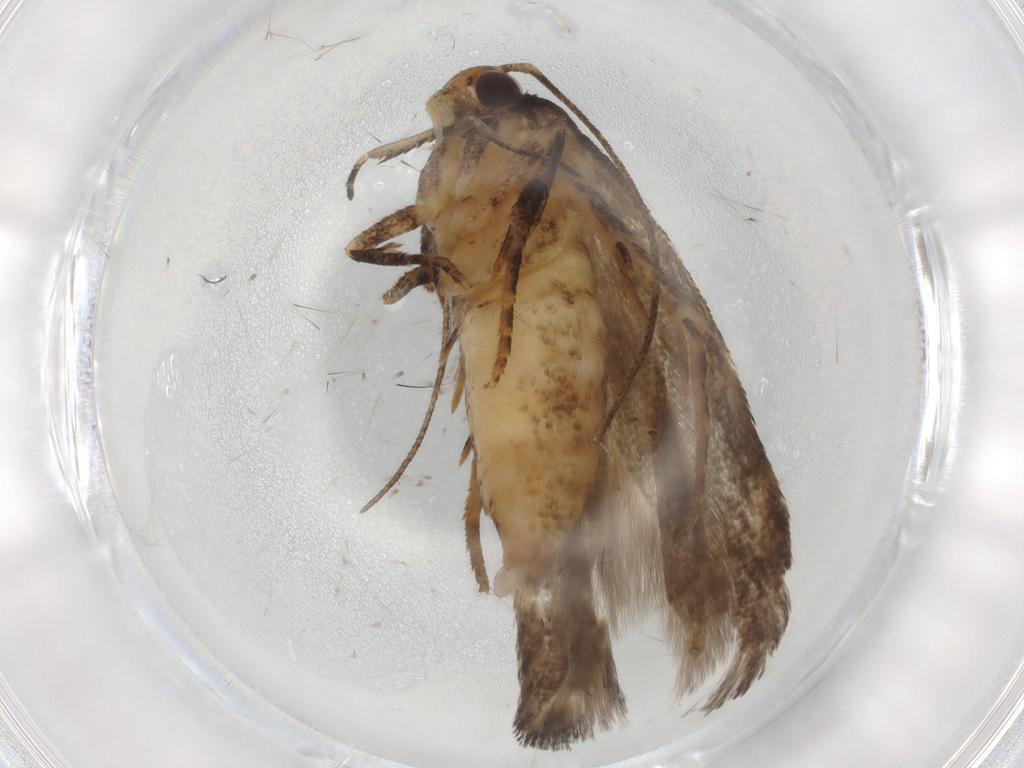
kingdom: Animalia
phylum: Arthropoda
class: Insecta
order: Lepidoptera
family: Gelechiidae
